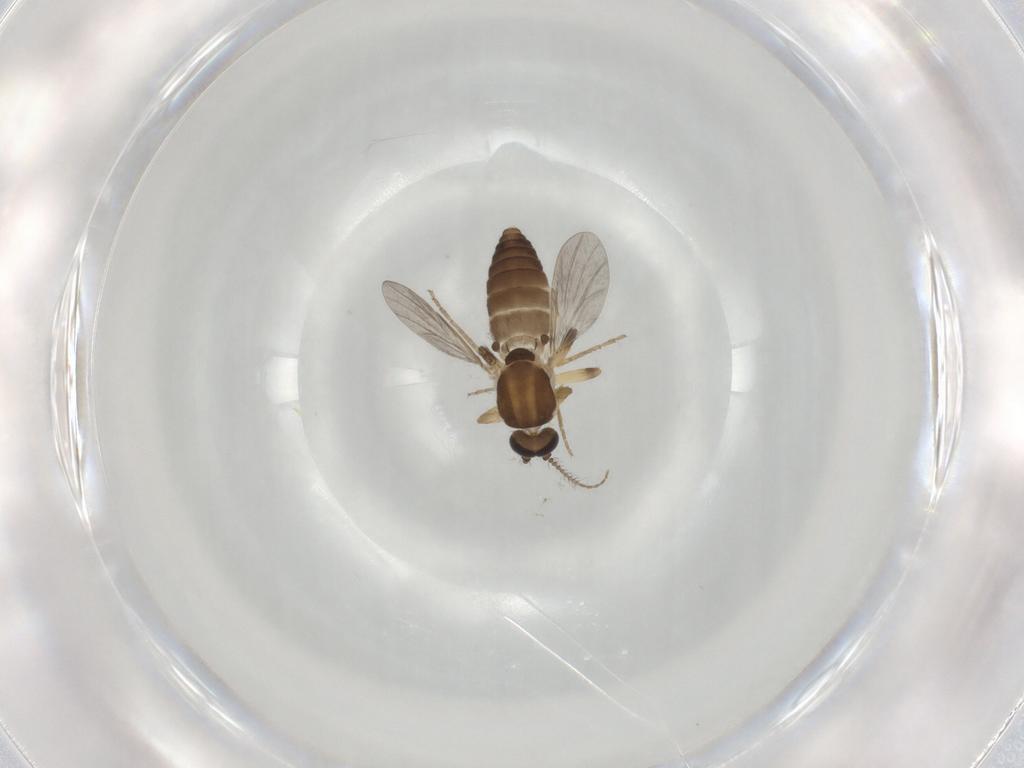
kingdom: Animalia
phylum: Arthropoda
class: Insecta
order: Diptera
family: Ceratopogonidae
